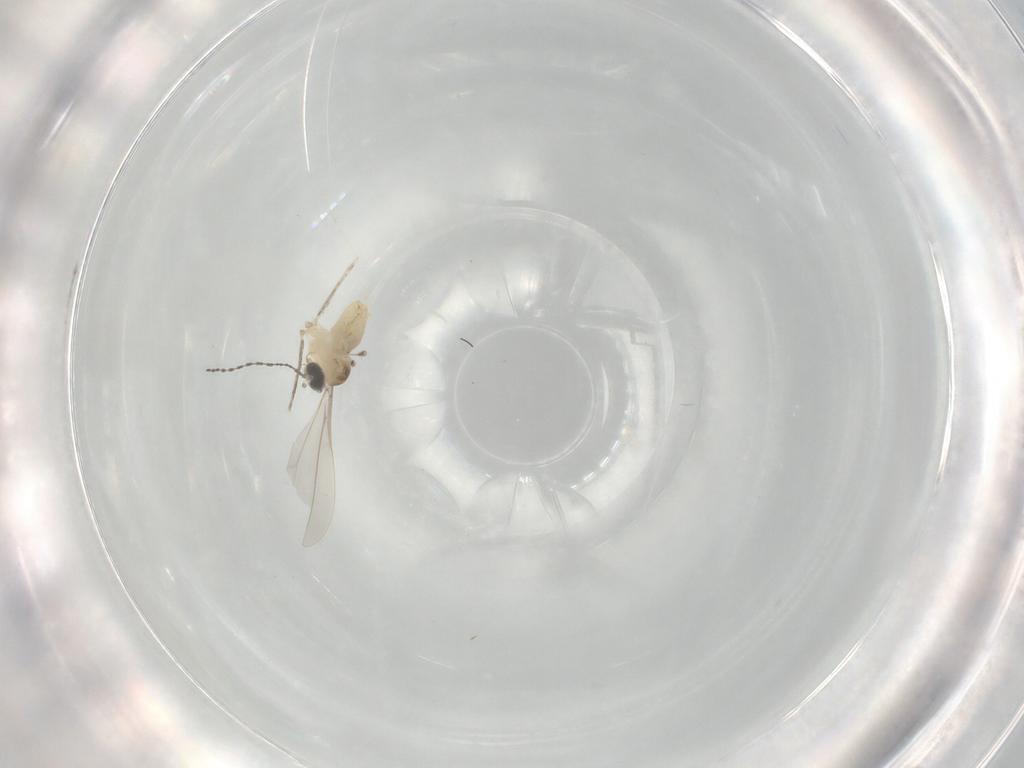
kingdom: Animalia
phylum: Arthropoda
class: Insecta
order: Diptera
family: Cecidomyiidae
